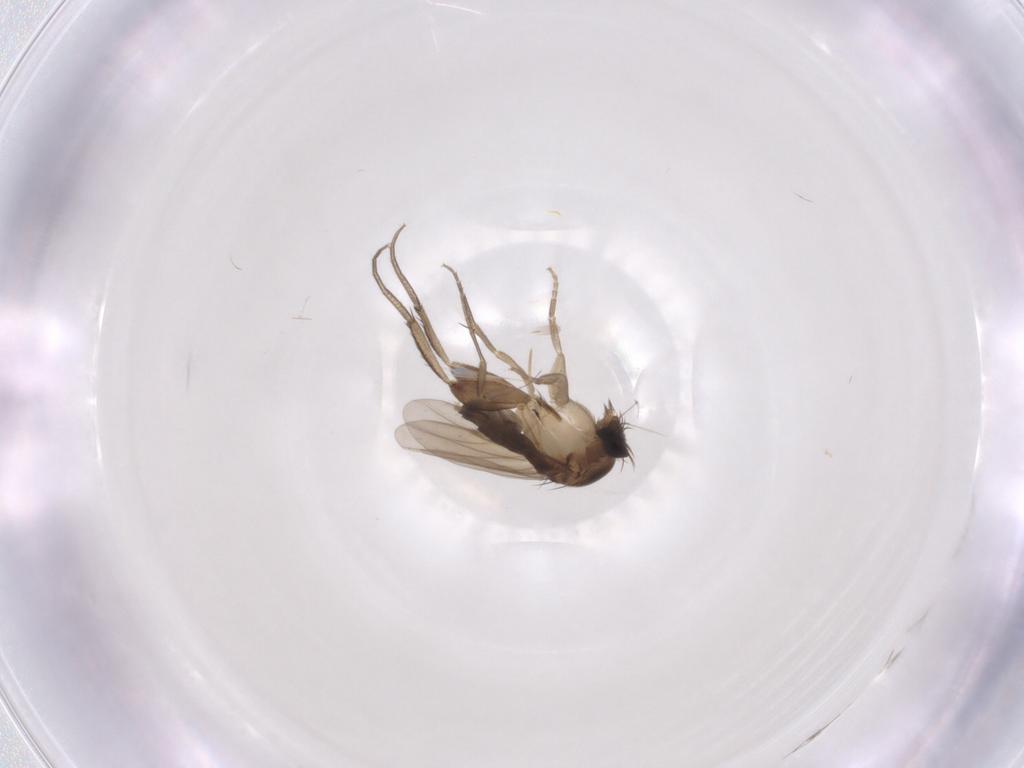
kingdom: Animalia
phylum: Arthropoda
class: Insecta
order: Diptera
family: Phoridae
